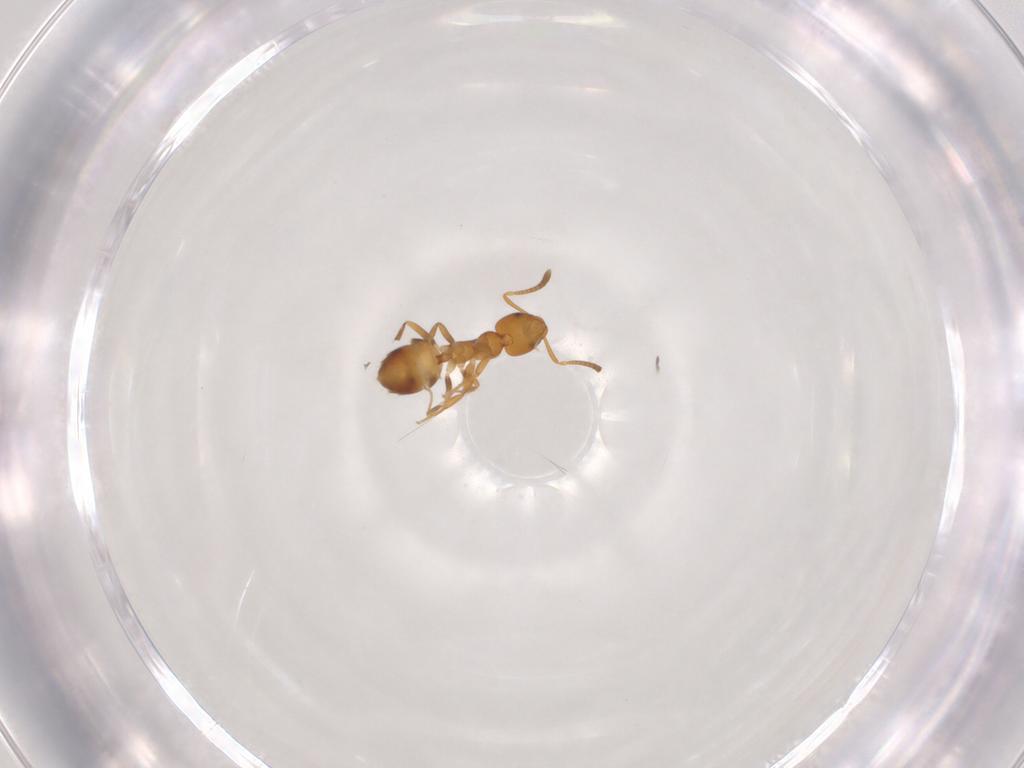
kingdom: Animalia
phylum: Arthropoda
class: Insecta
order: Hymenoptera
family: Formicidae
